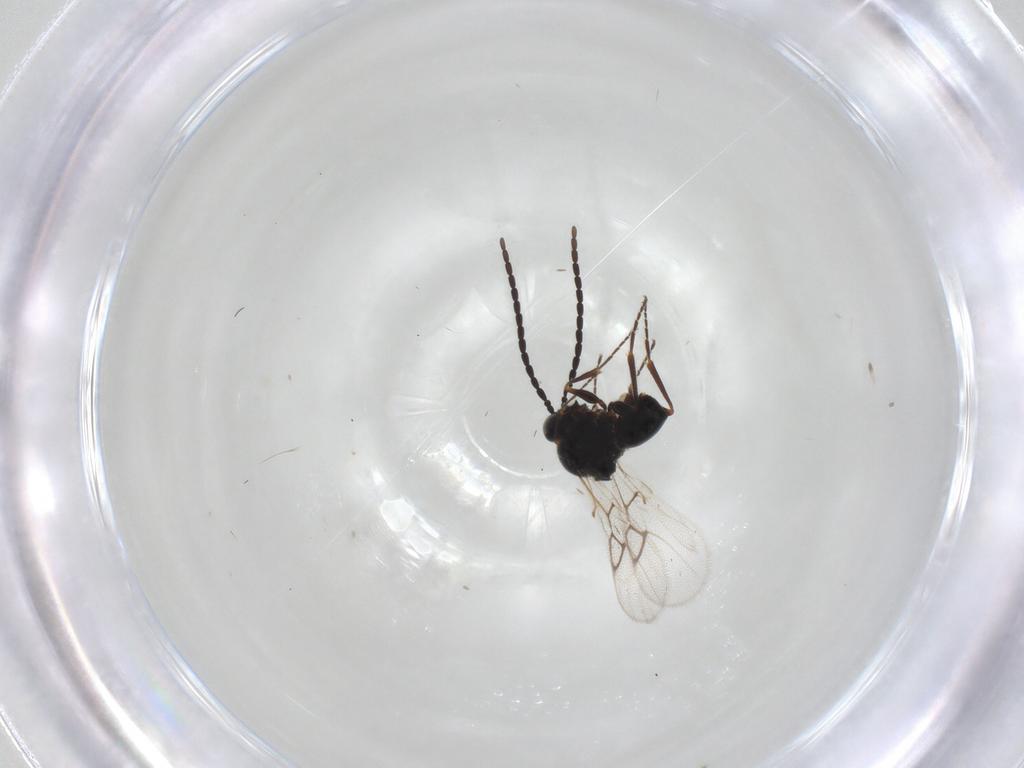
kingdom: Animalia
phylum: Arthropoda
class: Insecta
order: Hymenoptera
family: Figitidae
